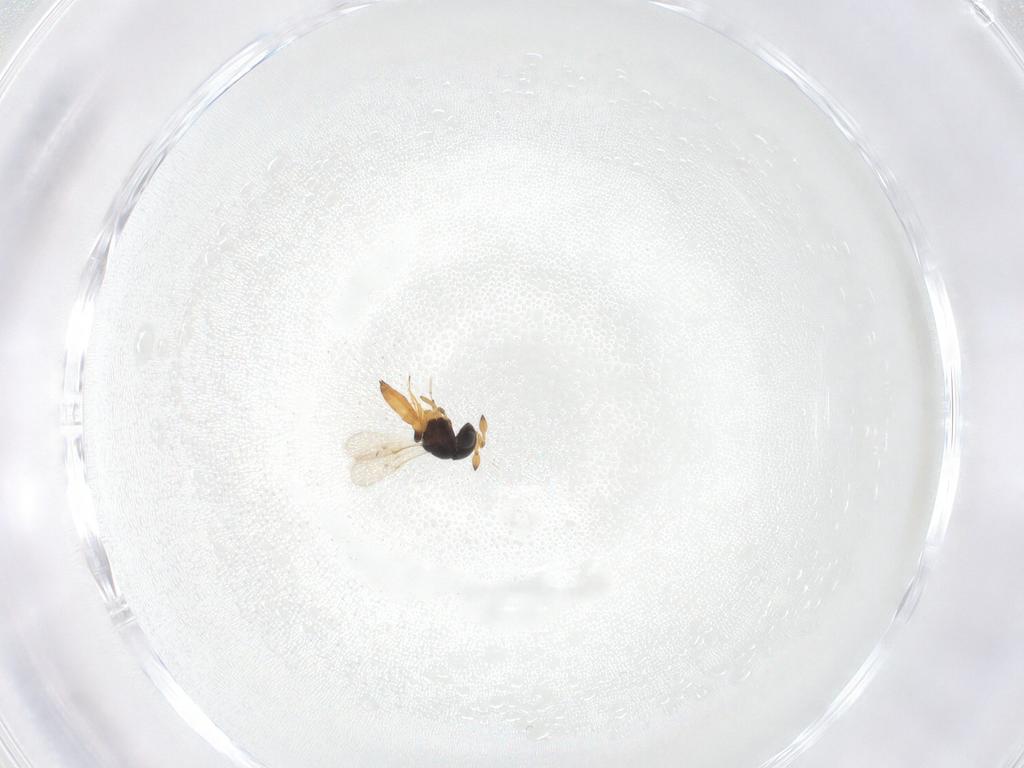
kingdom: Animalia
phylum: Arthropoda
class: Insecta
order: Hymenoptera
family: Scelionidae
